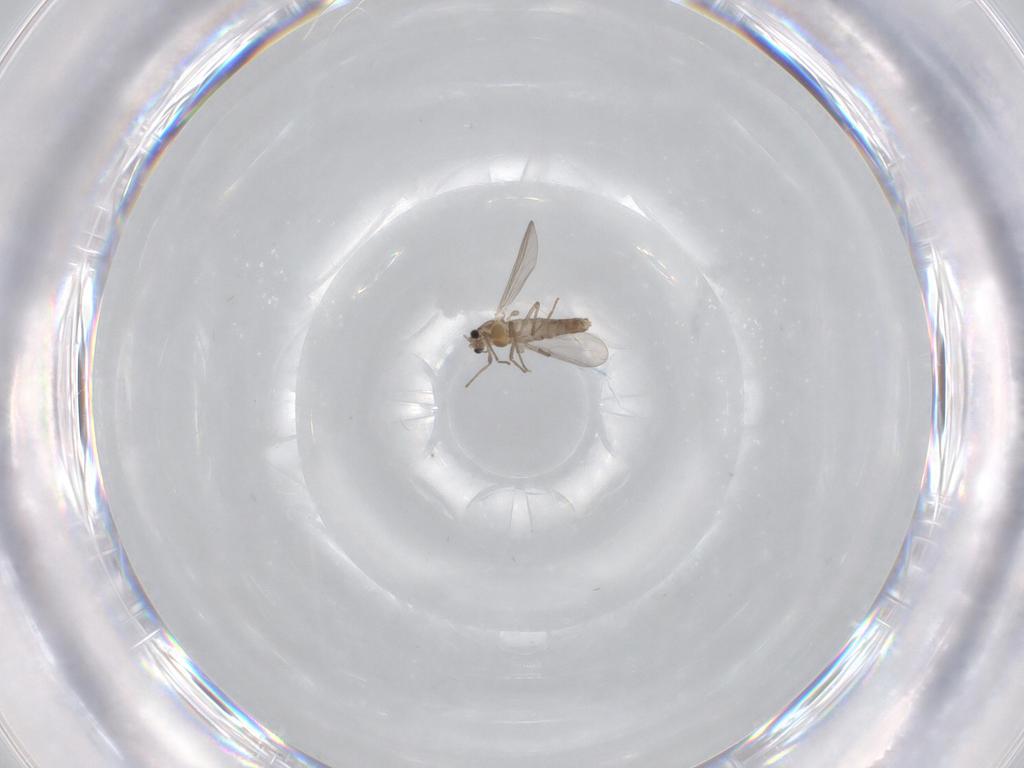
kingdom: Animalia
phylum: Arthropoda
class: Insecta
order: Diptera
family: Chironomidae
